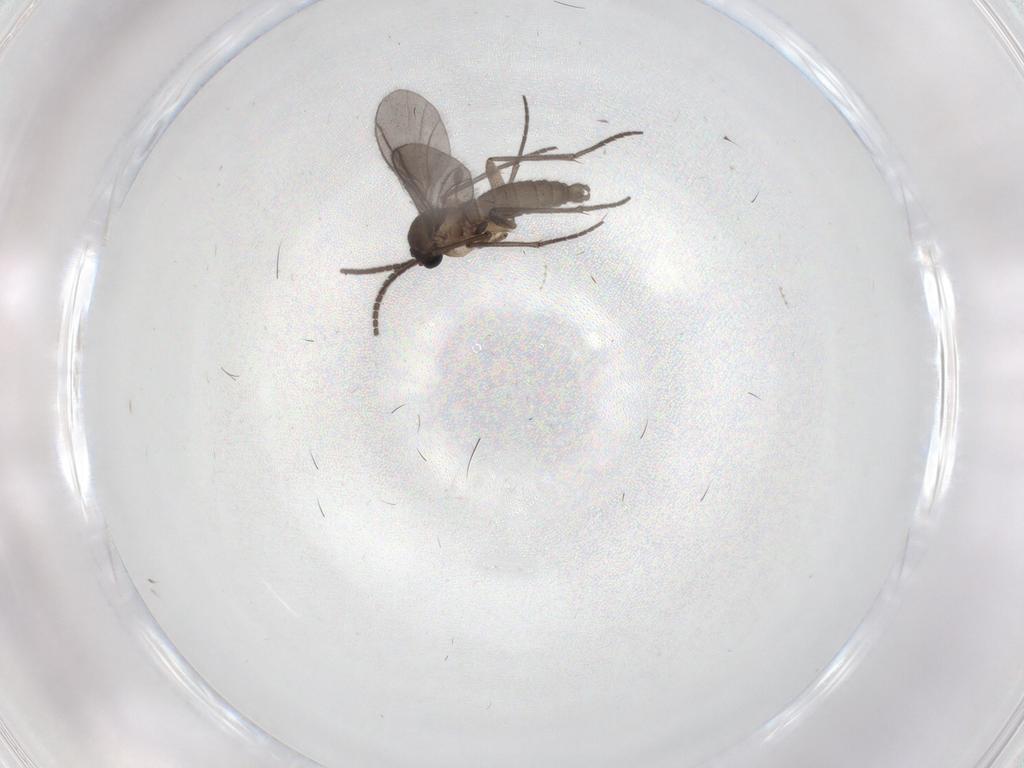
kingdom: Animalia
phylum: Arthropoda
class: Insecta
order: Diptera
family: Sciaridae
